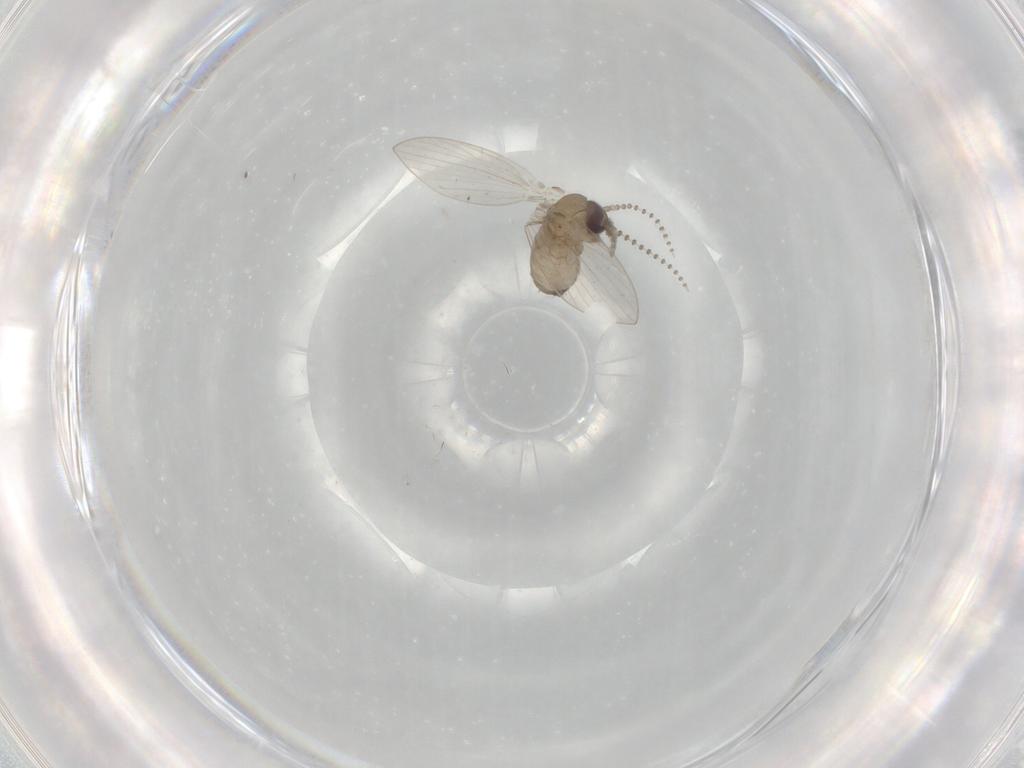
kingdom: Animalia
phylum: Arthropoda
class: Insecta
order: Diptera
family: Psychodidae
